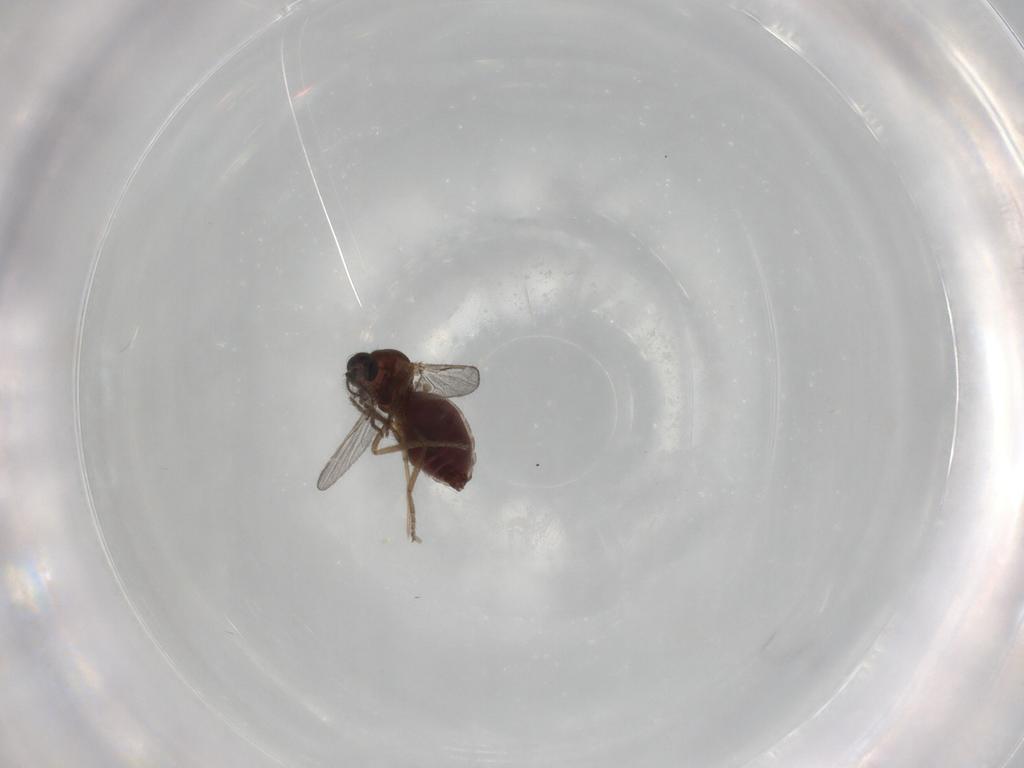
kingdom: Animalia
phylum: Arthropoda
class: Insecta
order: Diptera
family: Ceratopogonidae
